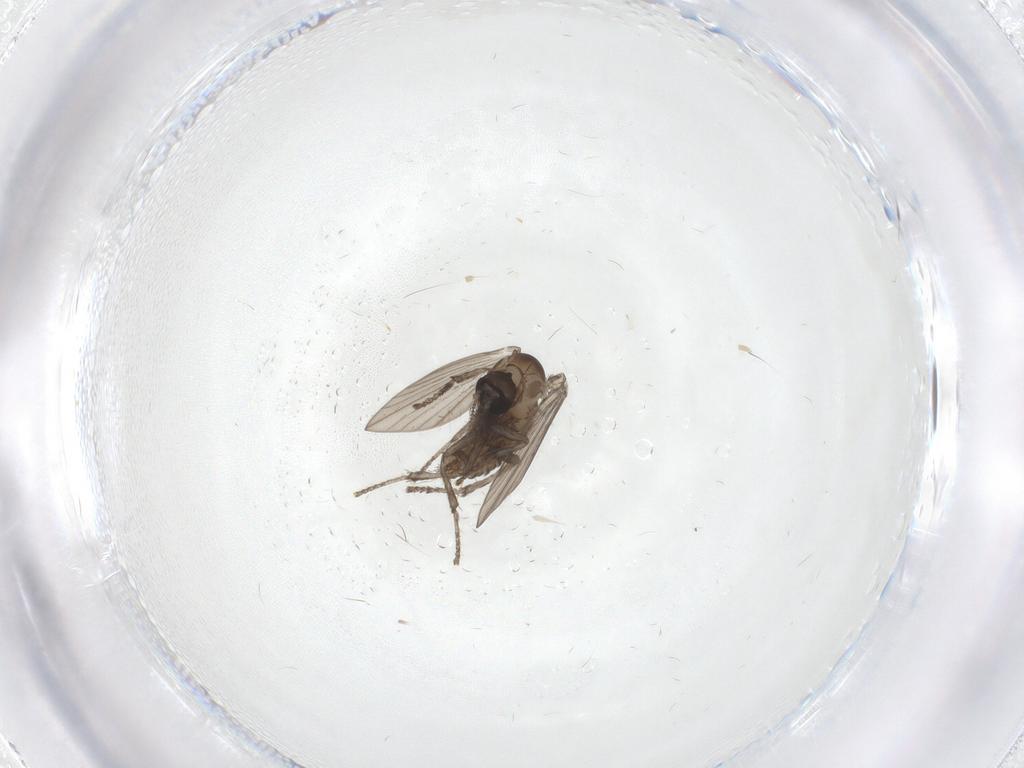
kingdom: Animalia
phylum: Arthropoda
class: Insecta
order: Diptera
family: Psychodidae
